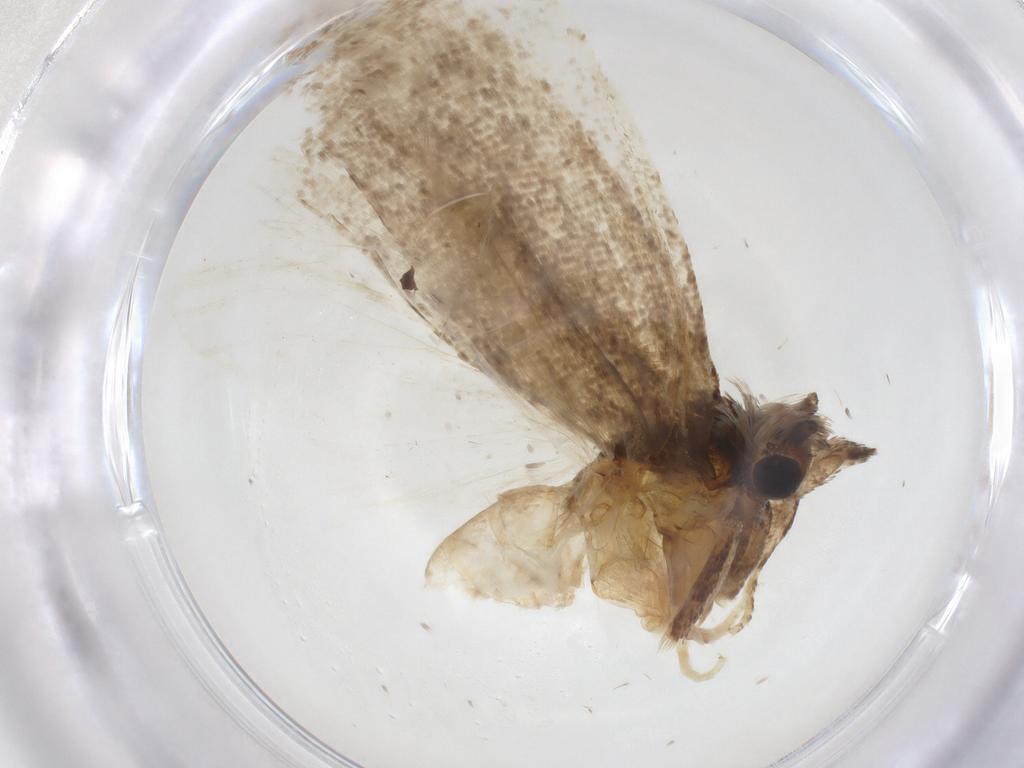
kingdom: Animalia
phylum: Arthropoda
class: Insecta
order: Lepidoptera
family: Tortricidae
